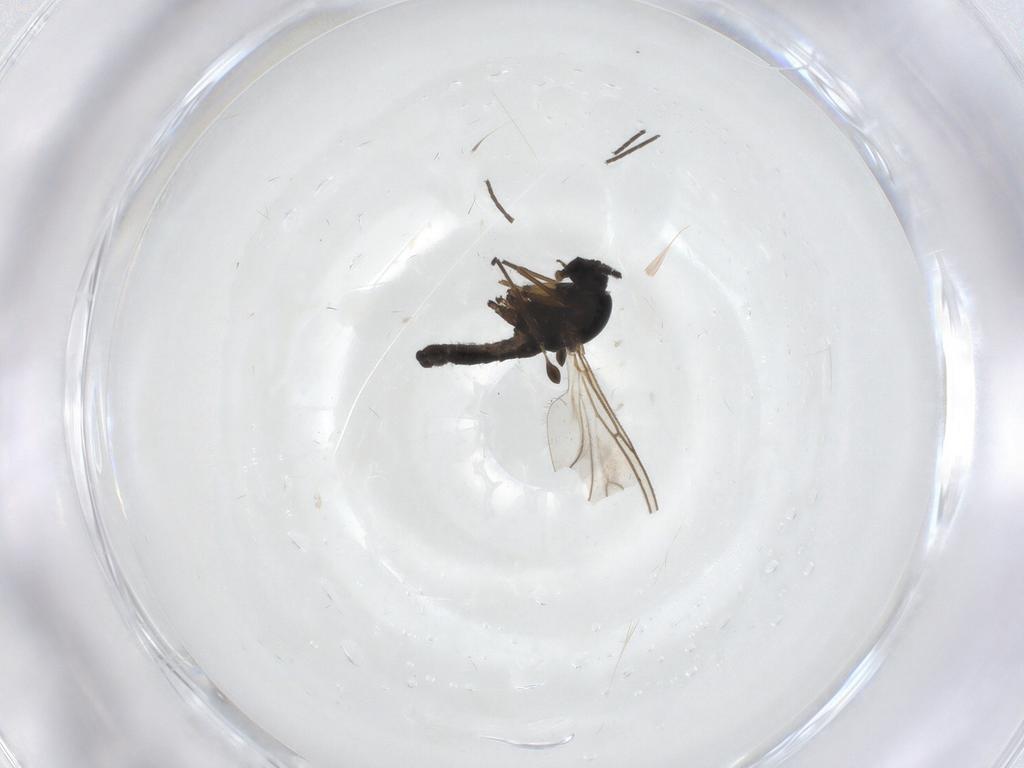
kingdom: Animalia
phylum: Arthropoda
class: Insecta
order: Diptera
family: Sciaridae
